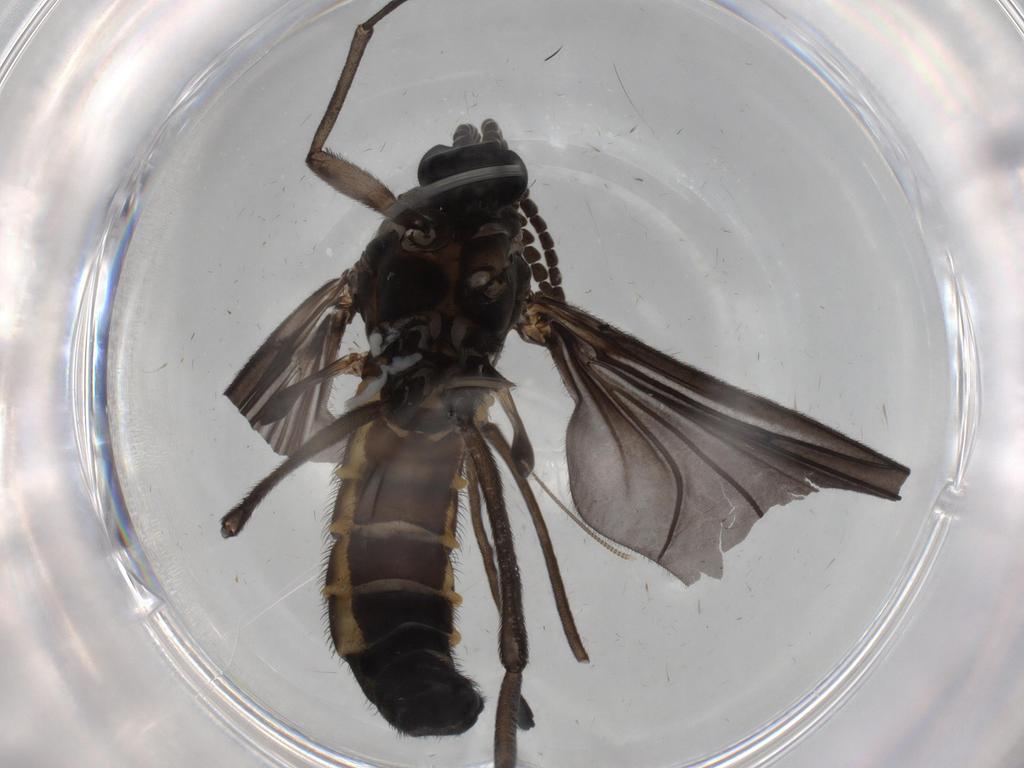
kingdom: Animalia
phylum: Arthropoda
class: Insecta
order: Diptera
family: Sciaridae
